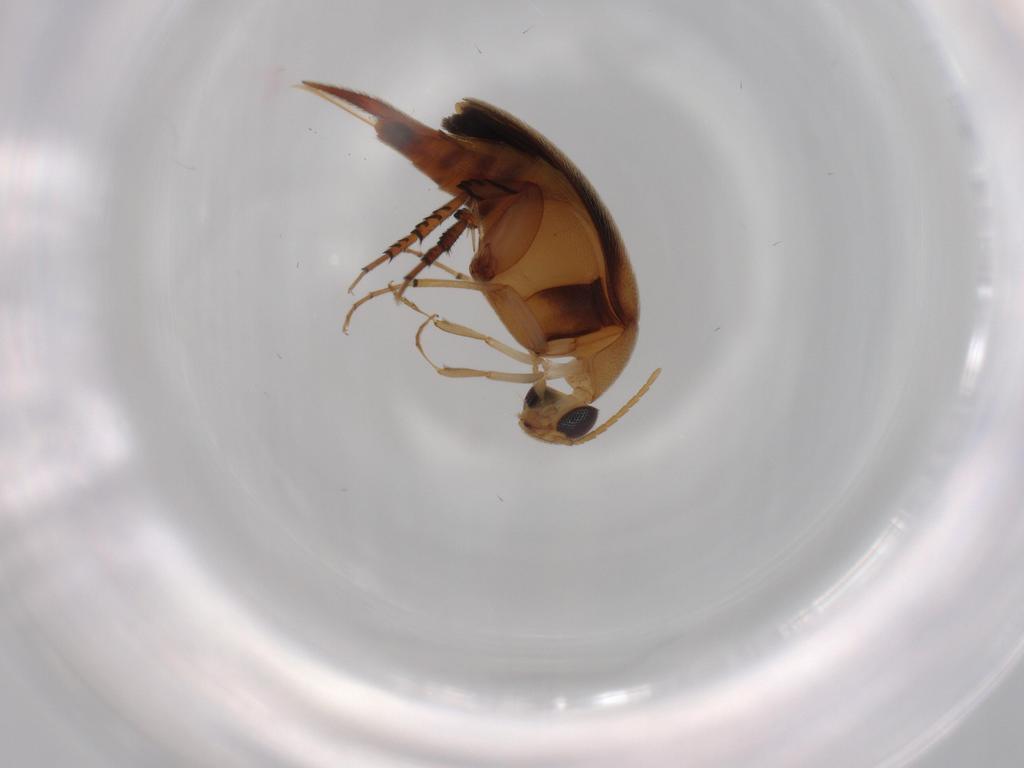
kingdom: Animalia
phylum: Arthropoda
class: Insecta
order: Coleoptera
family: Mordellidae
